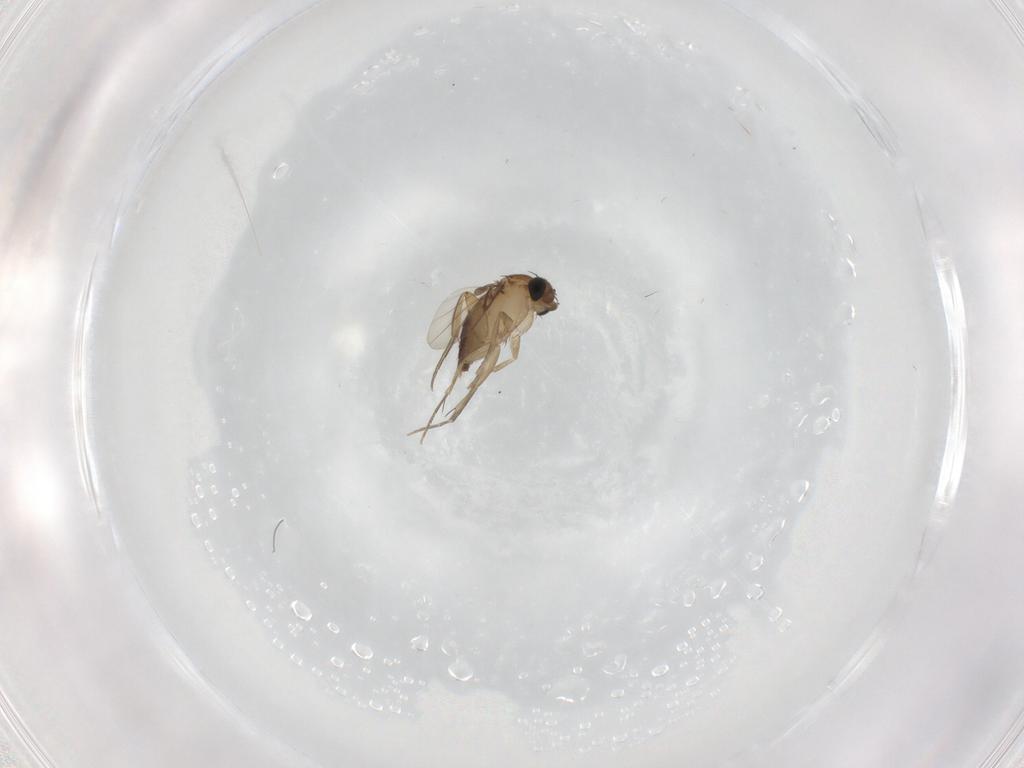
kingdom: Animalia
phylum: Arthropoda
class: Insecta
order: Diptera
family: Phoridae
